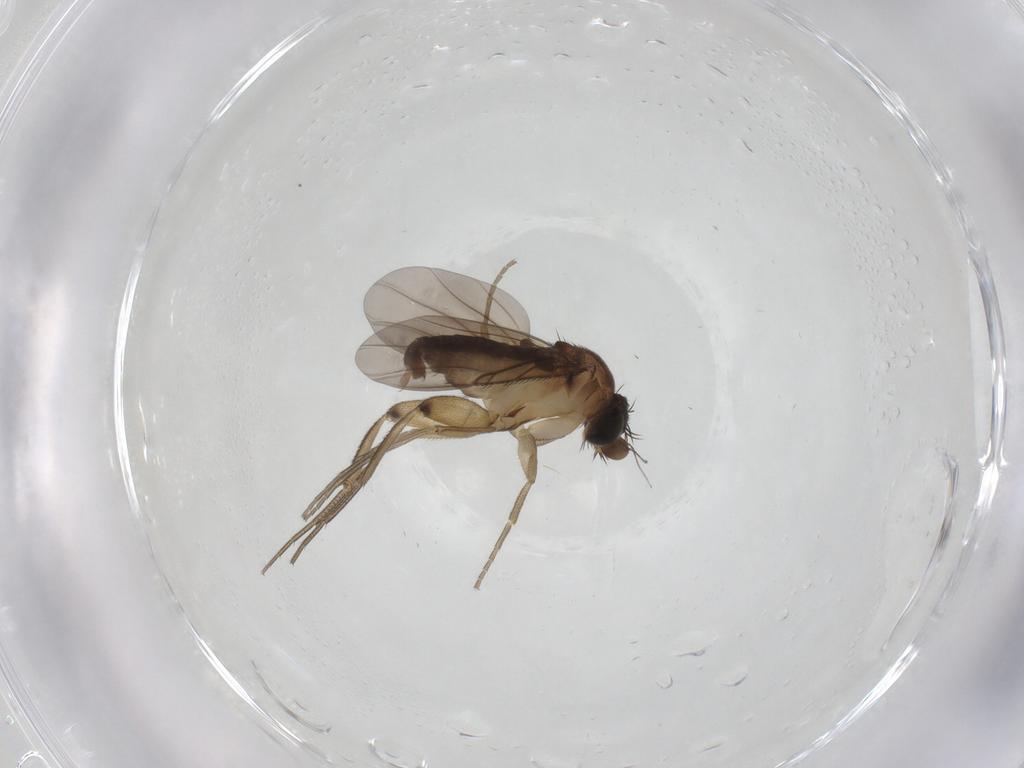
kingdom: Animalia
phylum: Arthropoda
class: Insecta
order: Diptera
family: Phoridae
